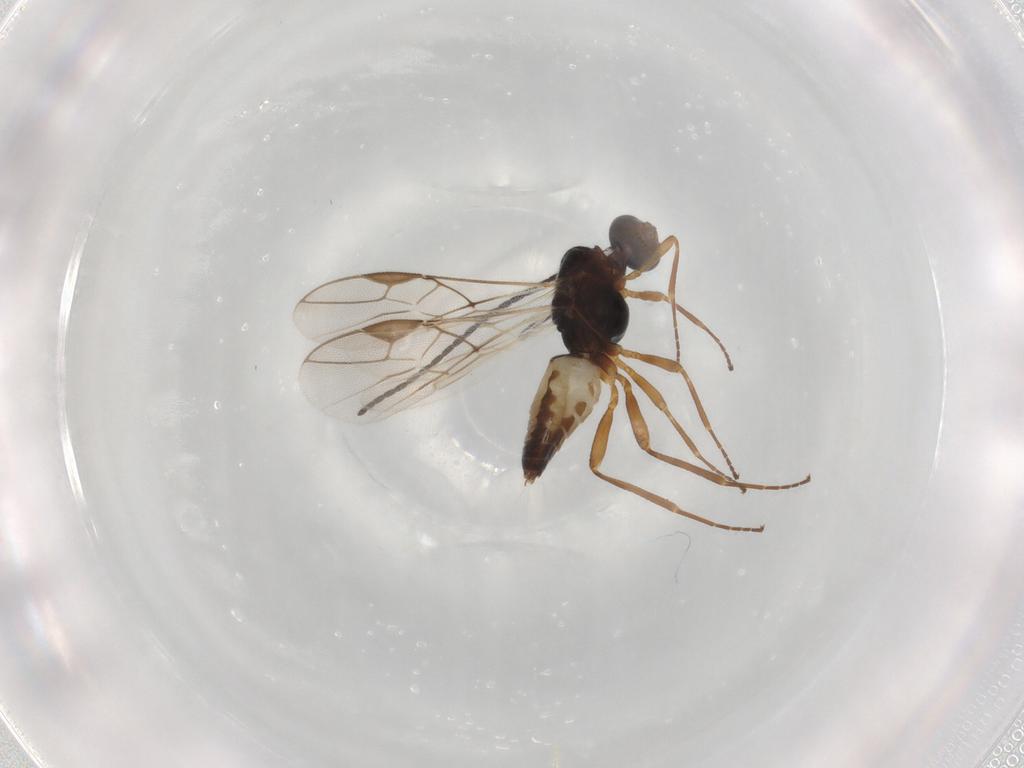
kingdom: Animalia
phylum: Arthropoda
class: Insecta
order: Hymenoptera
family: Braconidae
